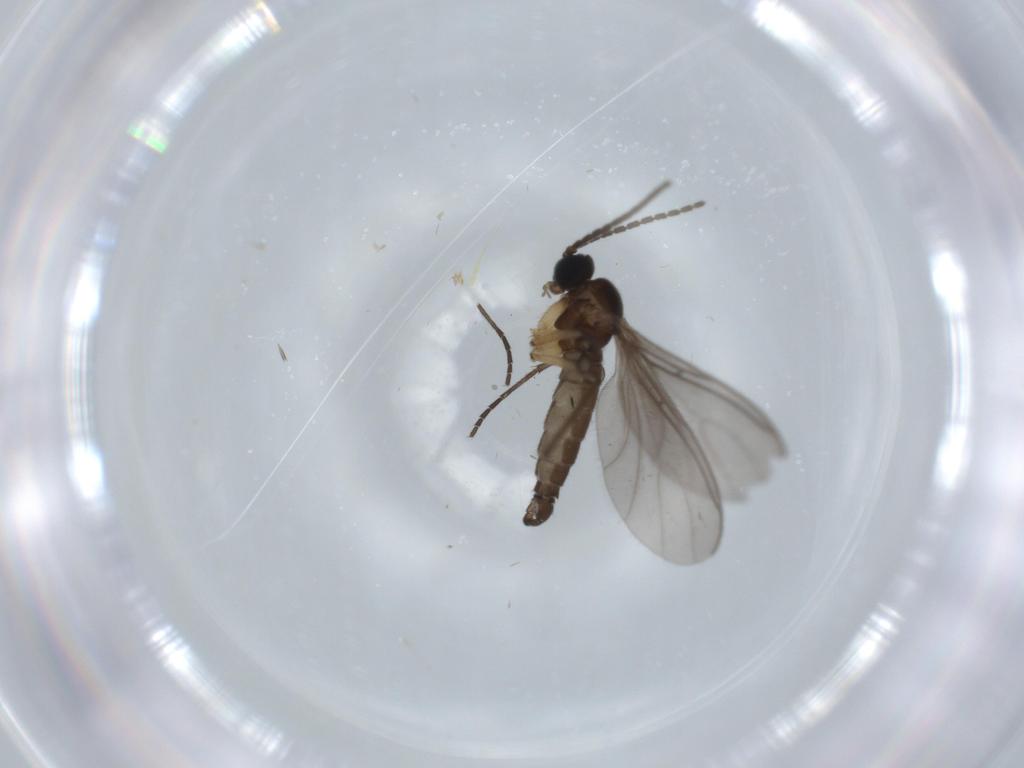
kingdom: Animalia
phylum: Arthropoda
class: Insecta
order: Diptera
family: Sciaridae
